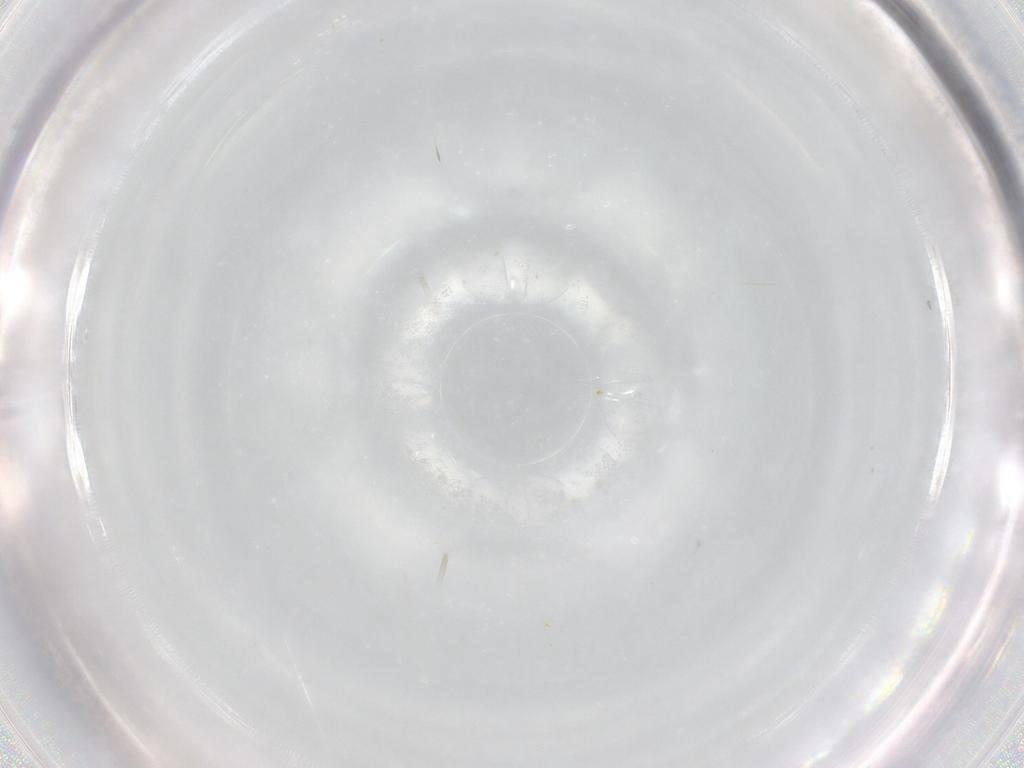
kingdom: Animalia
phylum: Arthropoda
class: Insecta
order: Diptera
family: Chironomidae
